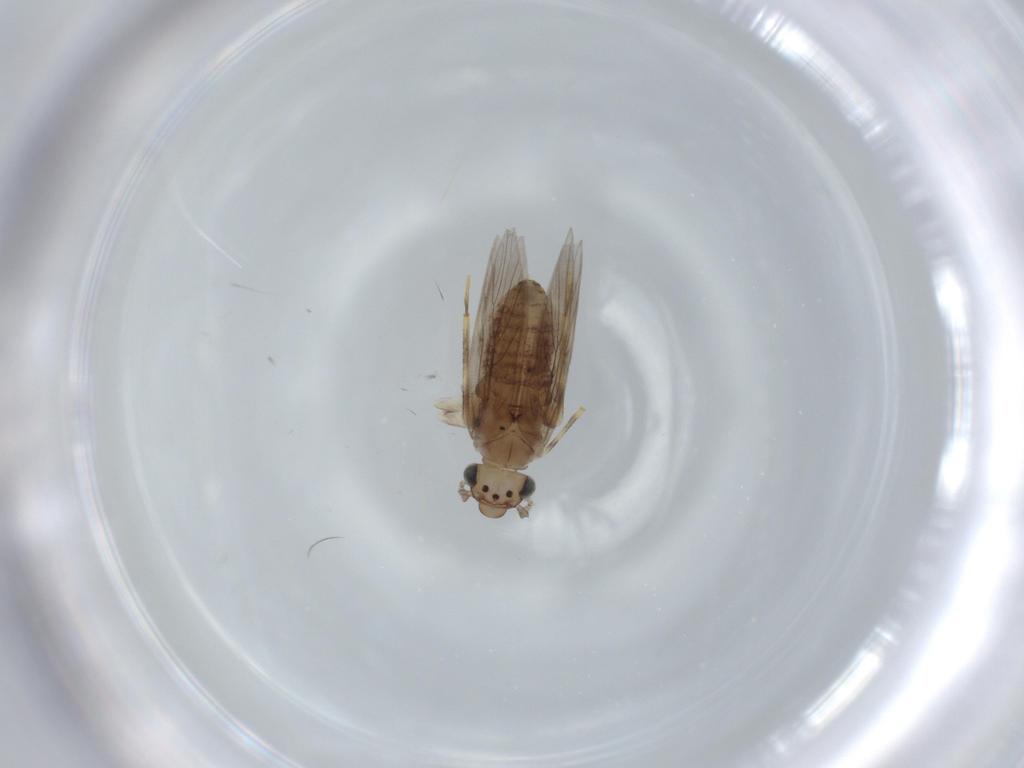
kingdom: Animalia
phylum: Arthropoda
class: Insecta
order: Psocodea
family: Lepidopsocidae
